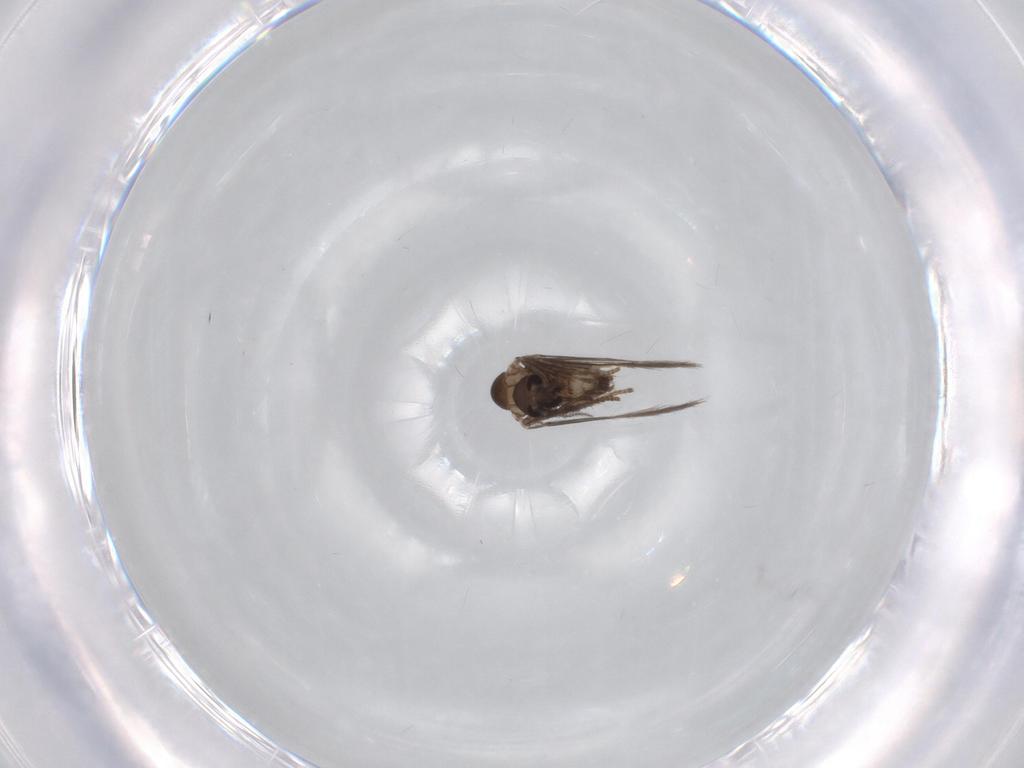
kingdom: Animalia
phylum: Arthropoda
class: Insecta
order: Diptera
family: Psychodidae
